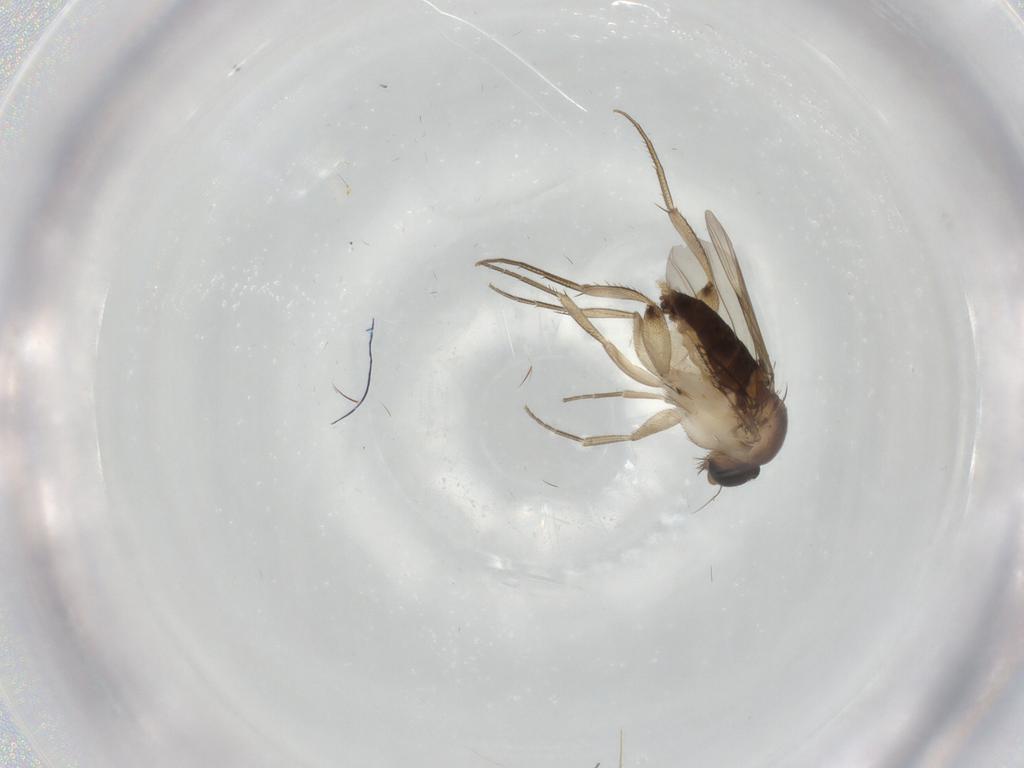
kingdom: Animalia
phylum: Arthropoda
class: Insecta
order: Diptera
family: Phoridae
